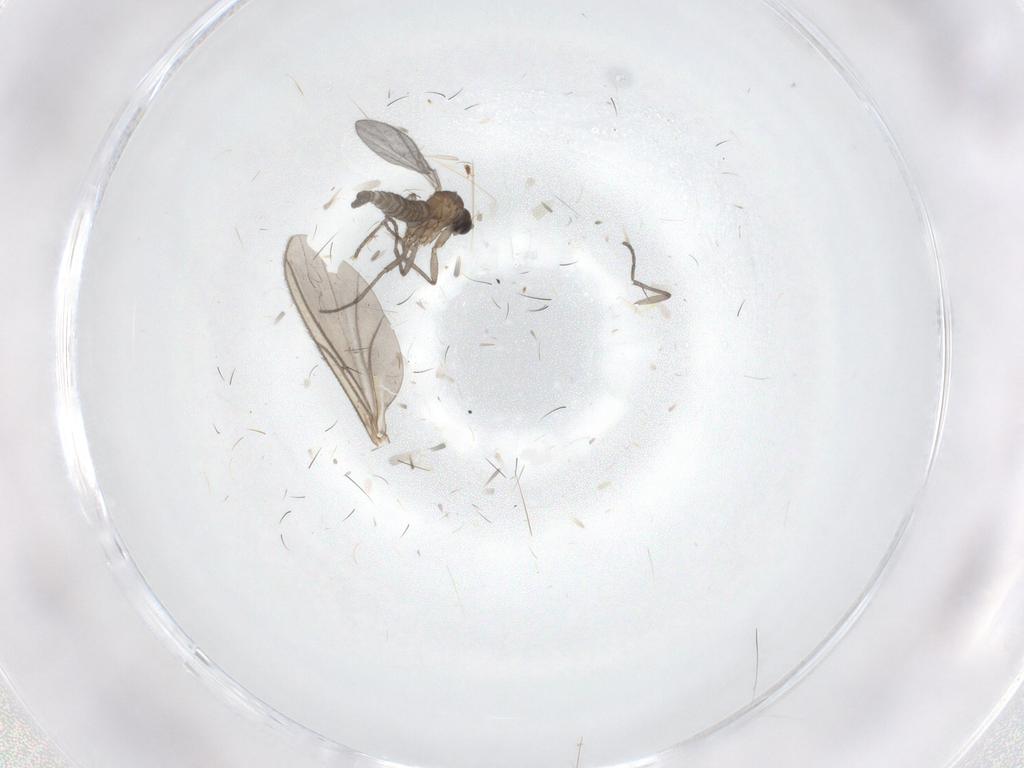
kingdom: Animalia
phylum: Arthropoda
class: Insecta
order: Diptera
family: Sciaridae
